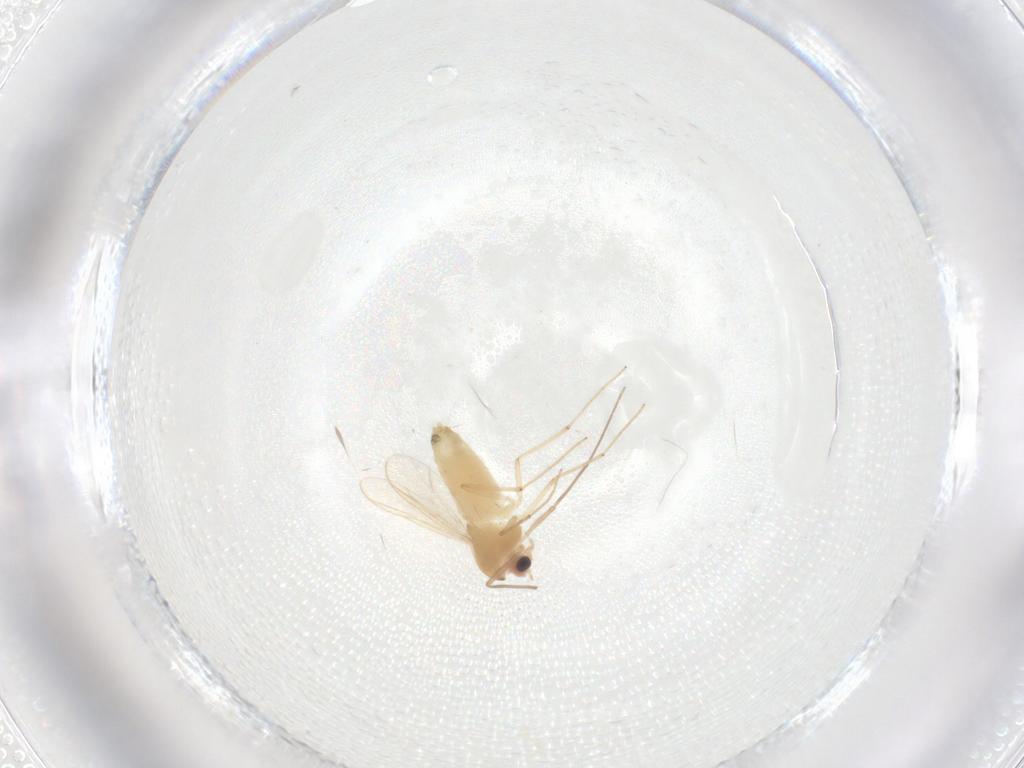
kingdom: Animalia
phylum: Arthropoda
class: Insecta
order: Diptera
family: Chironomidae
